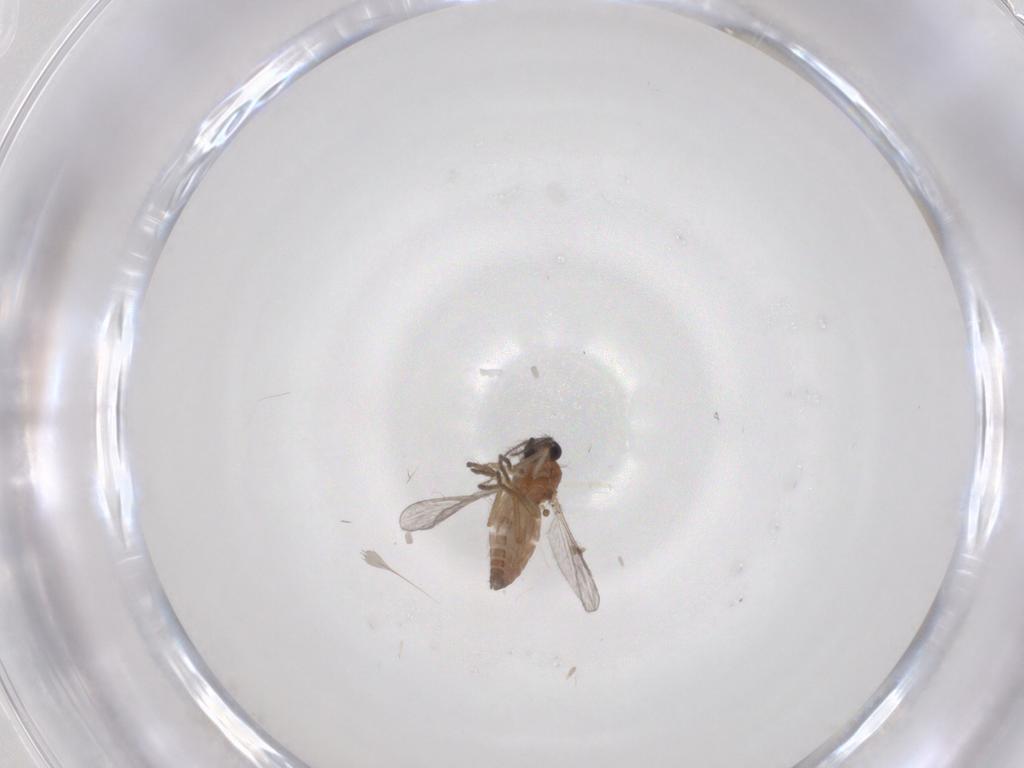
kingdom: Animalia
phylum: Arthropoda
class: Insecta
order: Diptera
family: Ceratopogonidae
